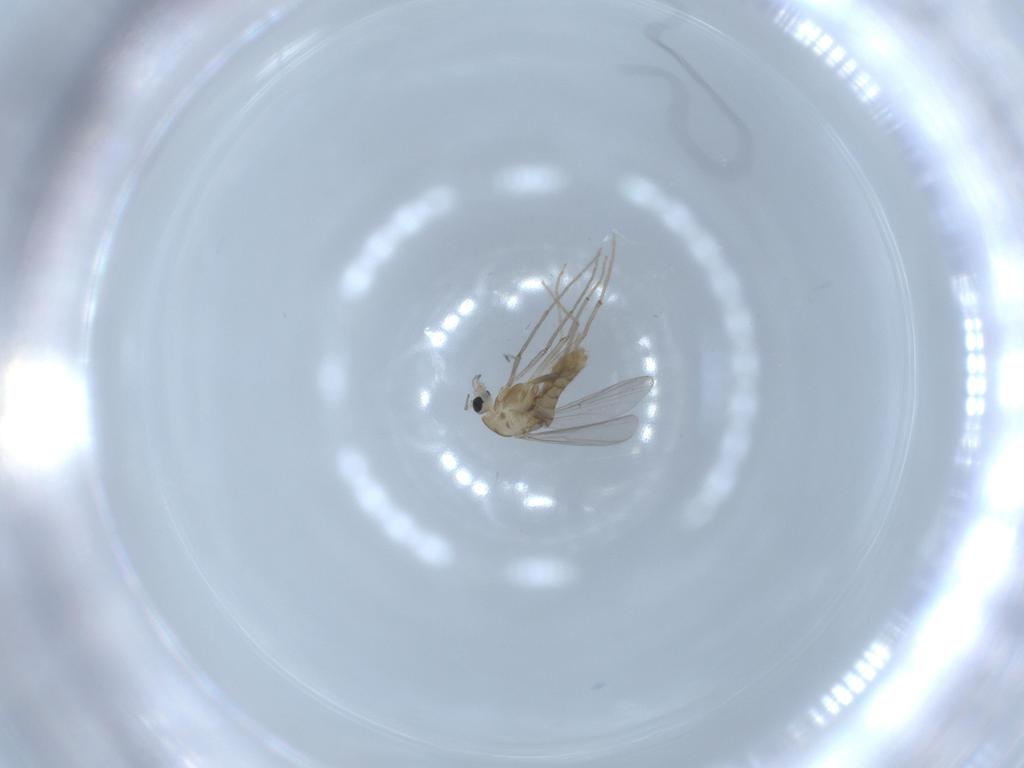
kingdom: Animalia
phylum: Arthropoda
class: Insecta
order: Diptera
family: Chironomidae
